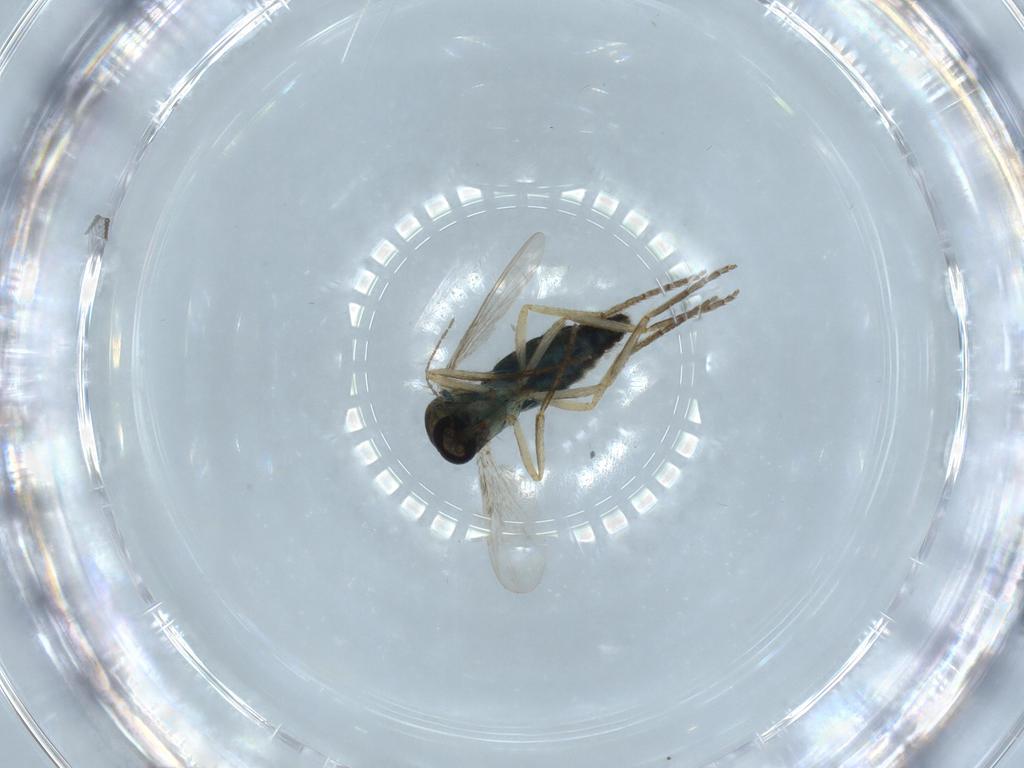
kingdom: Animalia
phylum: Arthropoda
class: Insecta
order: Diptera
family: Ceratopogonidae
